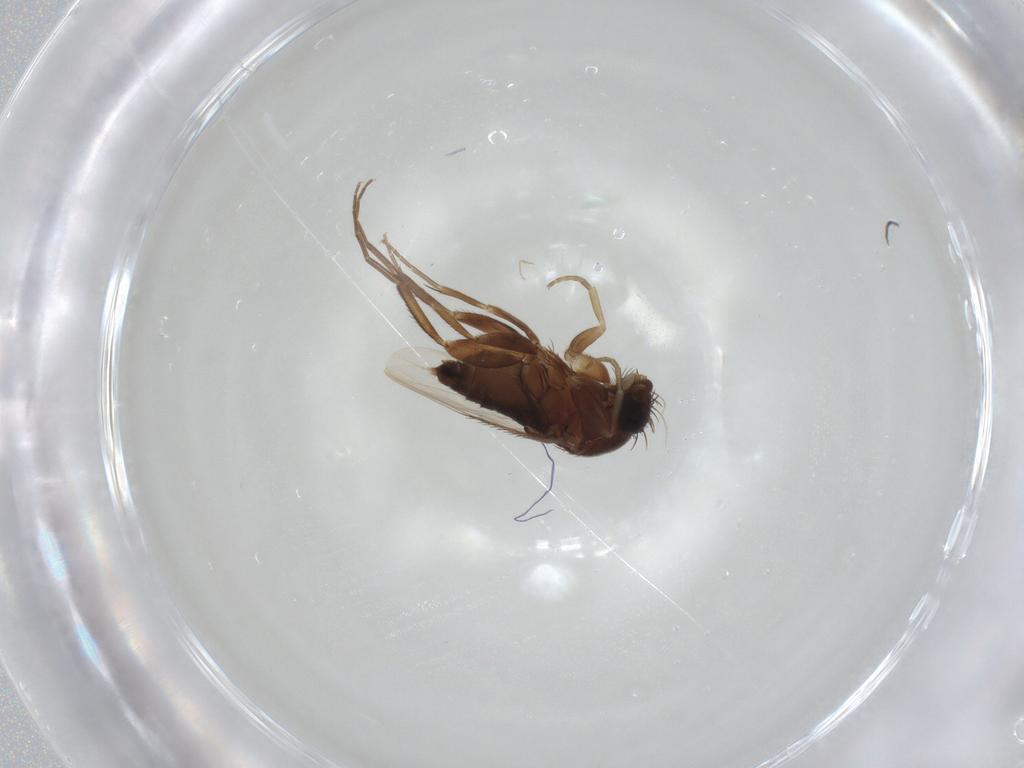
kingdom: Animalia
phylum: Arthropoda
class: Insecta
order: Diptera
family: Phoridae
